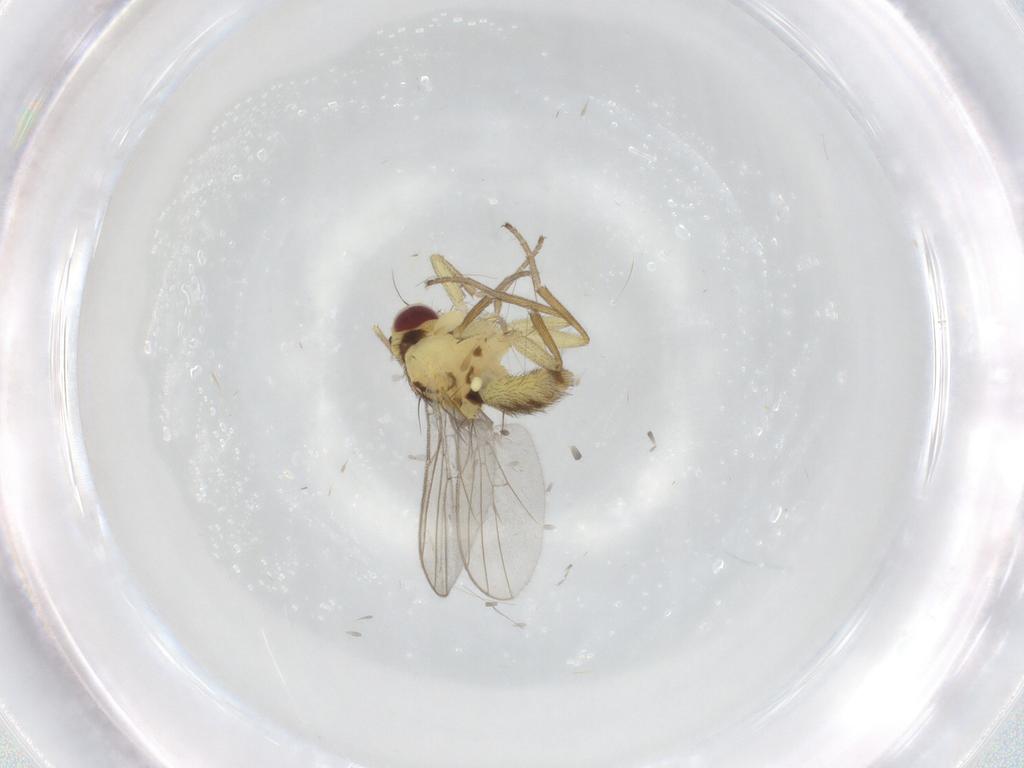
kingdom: Animalia
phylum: Arthropoda
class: Insecta
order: Diptera
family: Agromyzidae
